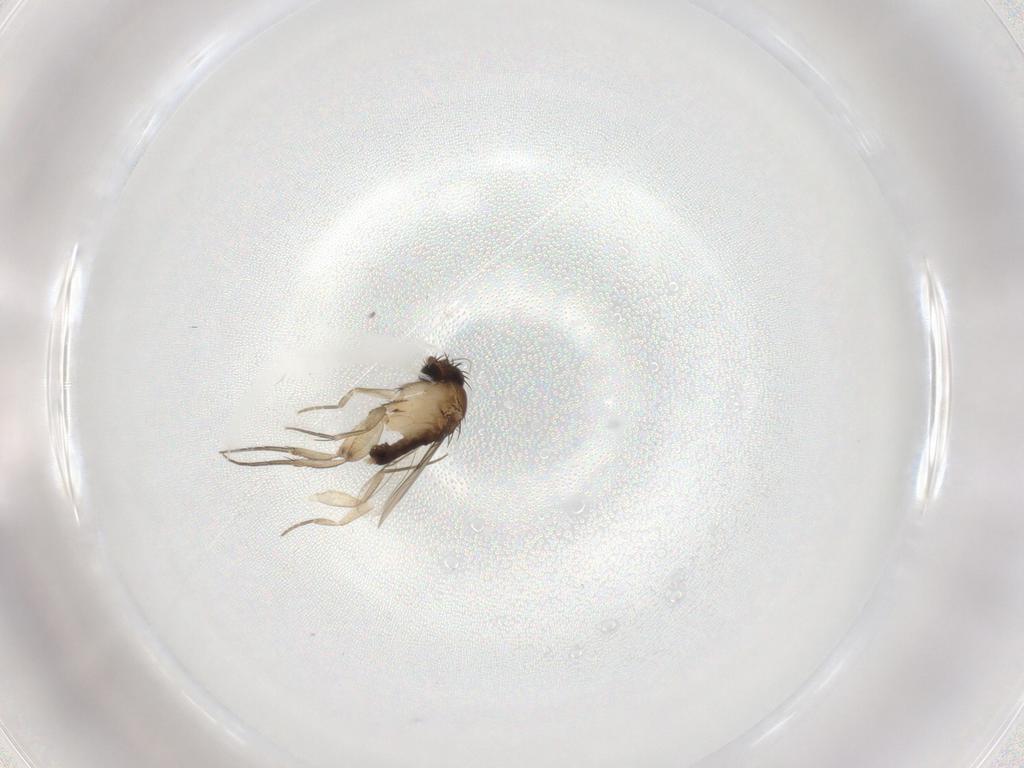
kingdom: Animalia
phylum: Arthropoda
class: Insecta
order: Diptera
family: Phoridae
